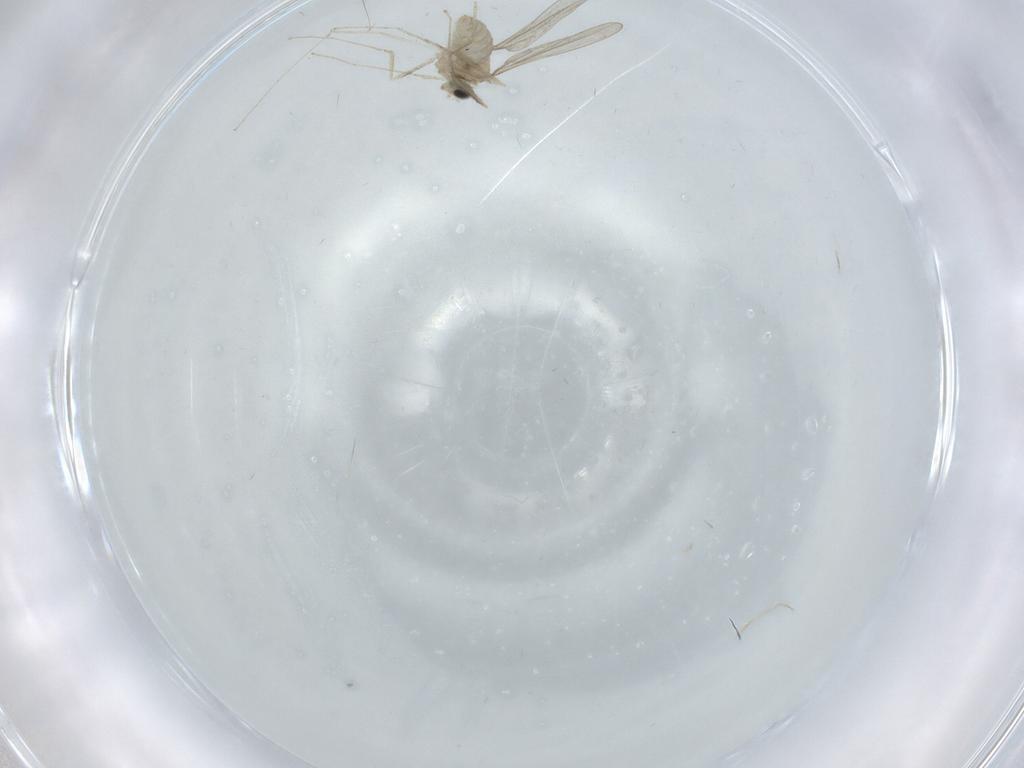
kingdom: Animalia
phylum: Arthropoda
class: Insecta
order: Diptera
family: Cecidomyiidae
